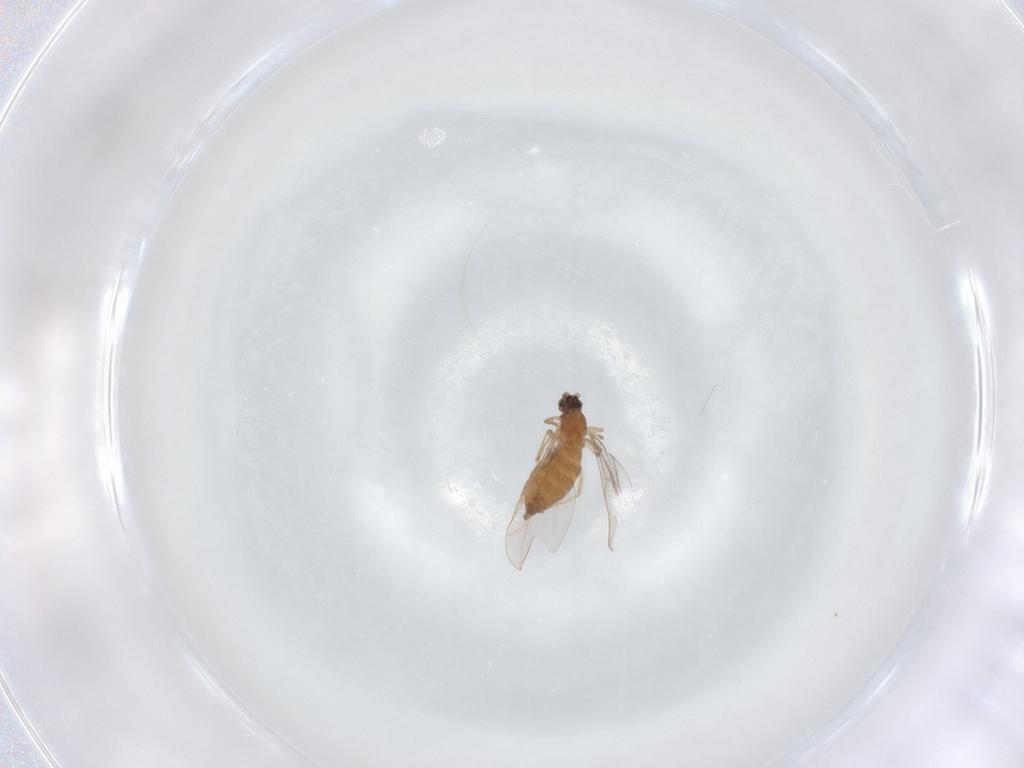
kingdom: Animalia
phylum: Arthropoda
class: Insecta
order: Diptera
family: Cecidomyiidae
